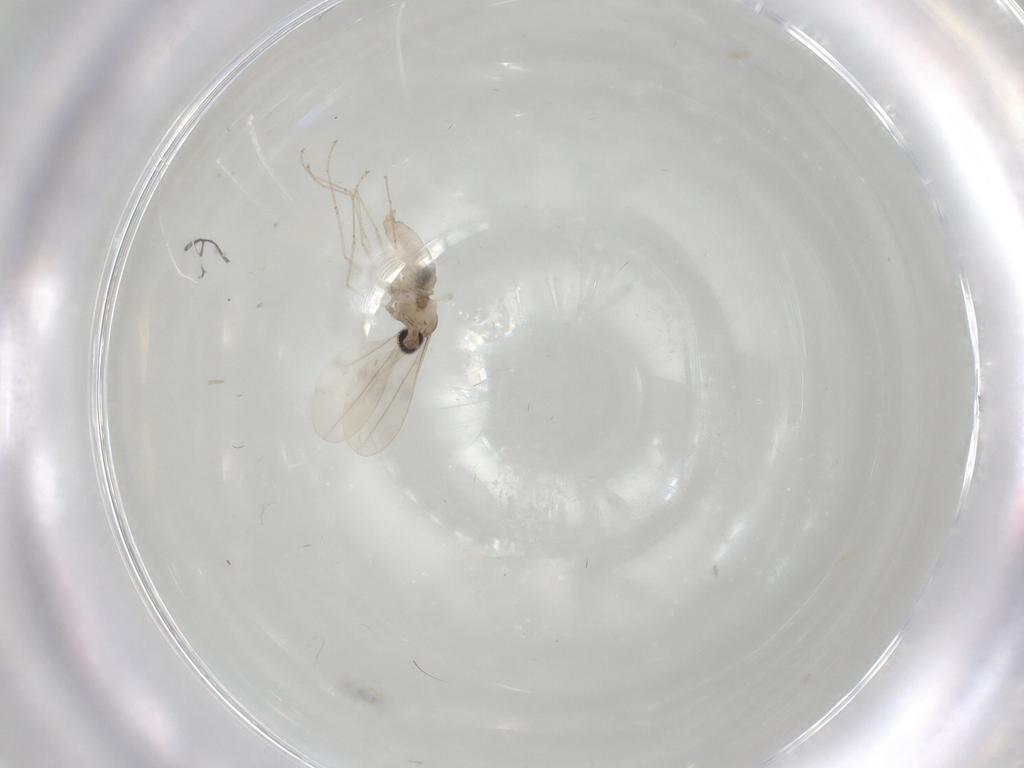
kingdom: Animalia
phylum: Arthropoda
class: Insecta
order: Diptera
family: Cecidomyiidae
